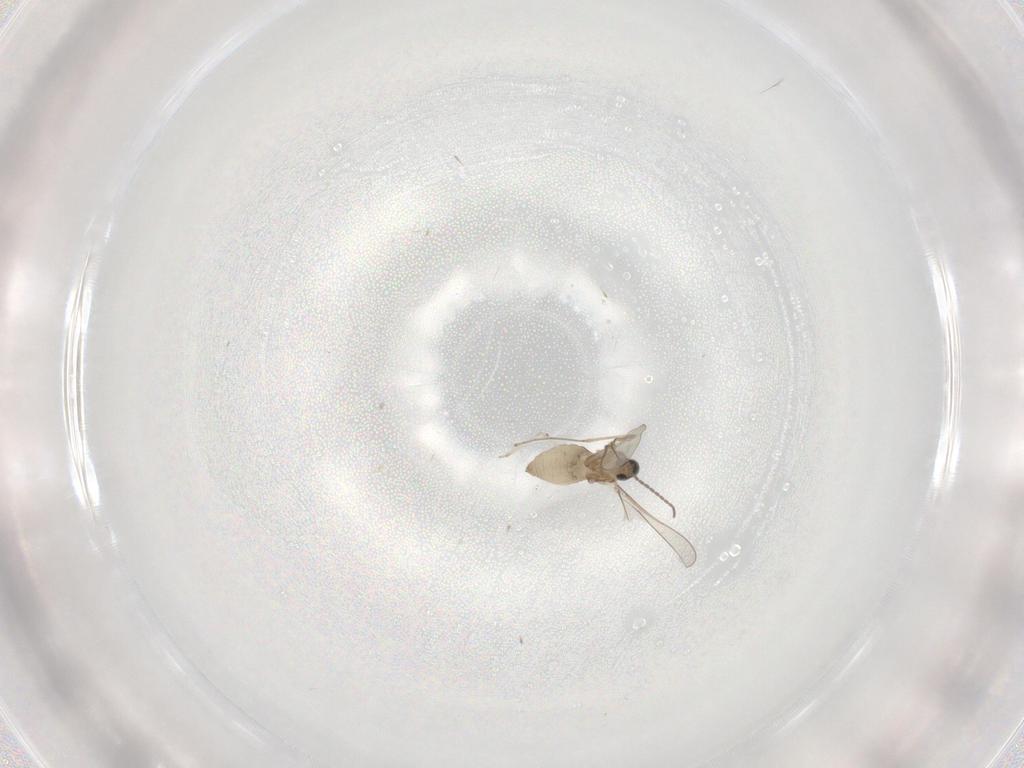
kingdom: Animalia
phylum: Arthropoda
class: Insecta
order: Diptera
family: Cecidomyiidae
